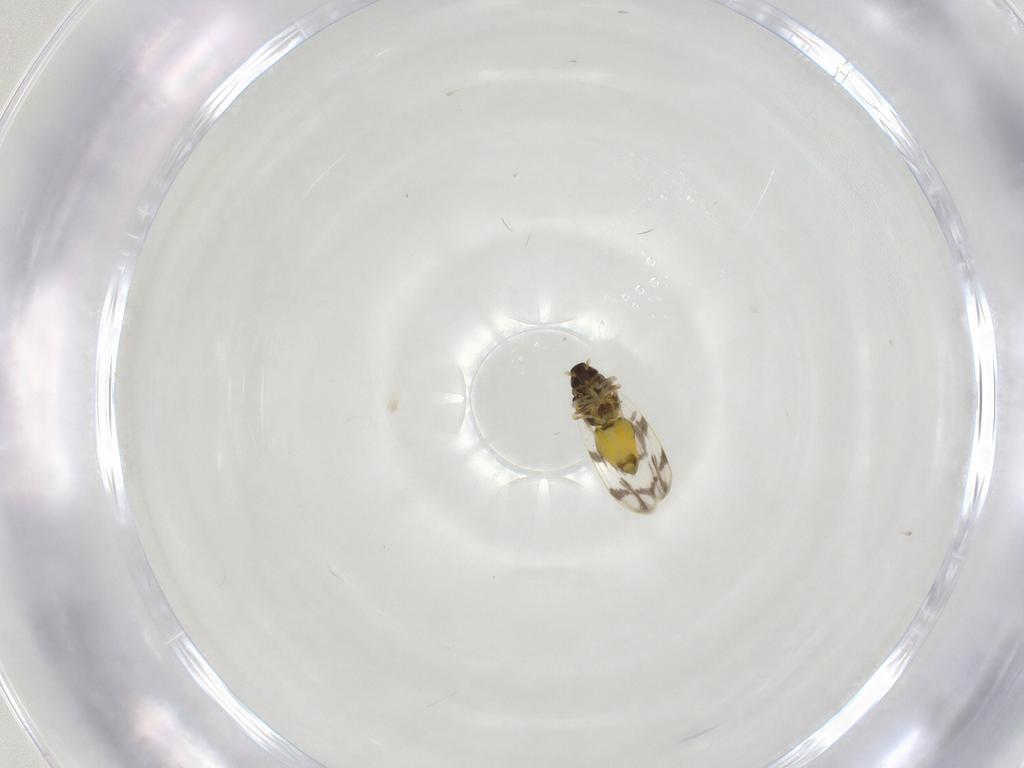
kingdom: Animalia
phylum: Arthropoda
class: Insecta
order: Hemiptera
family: Aleyrodidae
